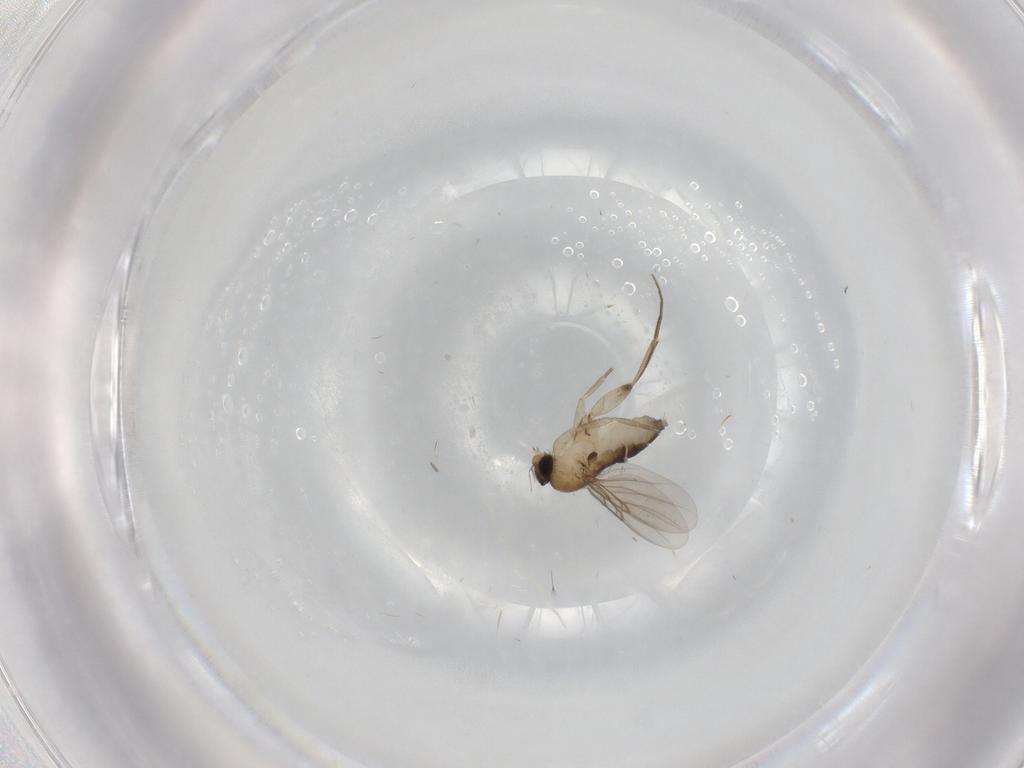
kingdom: Animalia
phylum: Arthropoda
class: Insecta
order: Diptera
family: Phoridae
